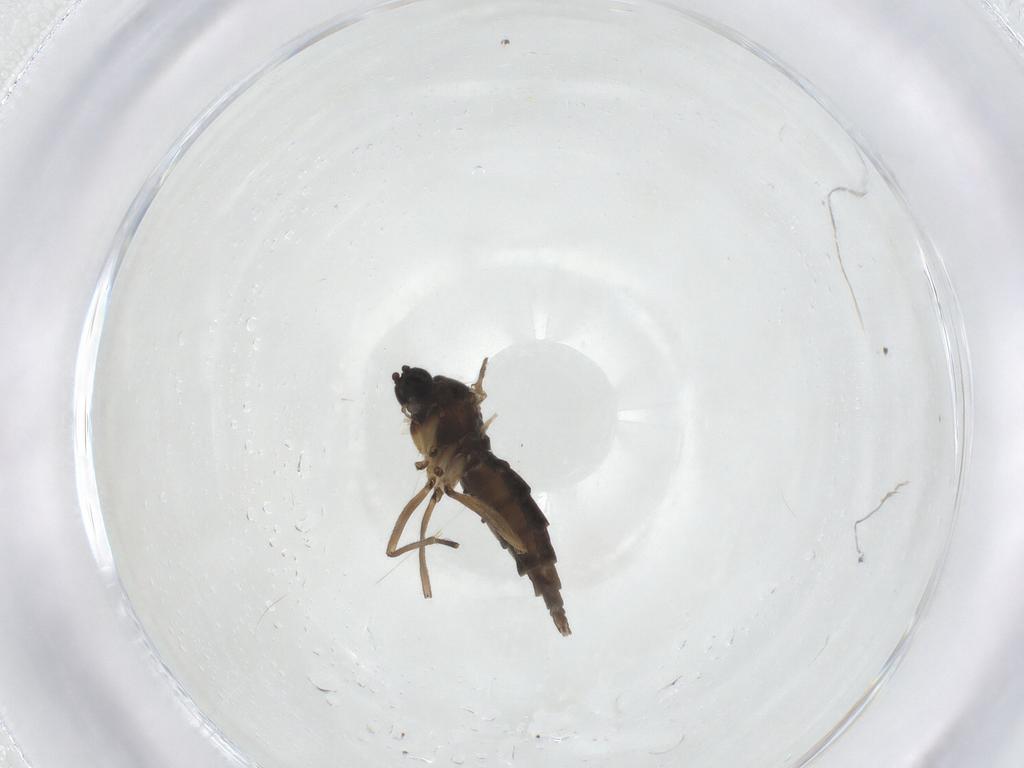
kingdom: Animalia
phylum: Arthropoda
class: Insecta
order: Diptera
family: Sciaridae
